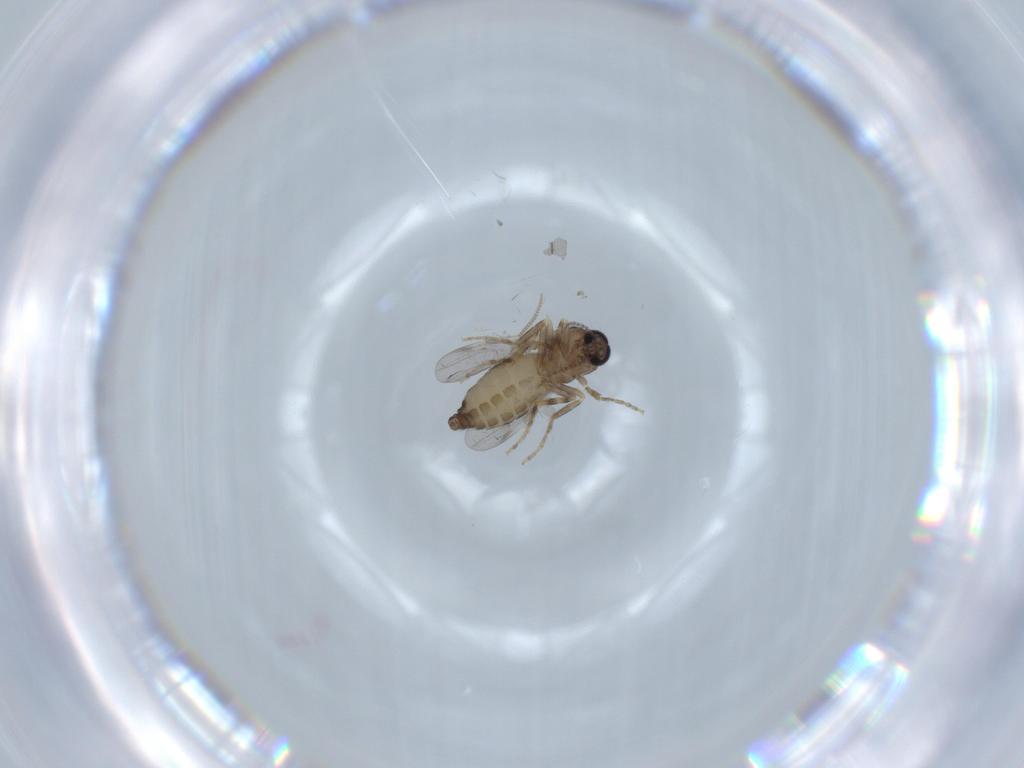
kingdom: Animalia
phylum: Arthropoda
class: Insecta
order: Diptera
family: Ceratopogonidae
